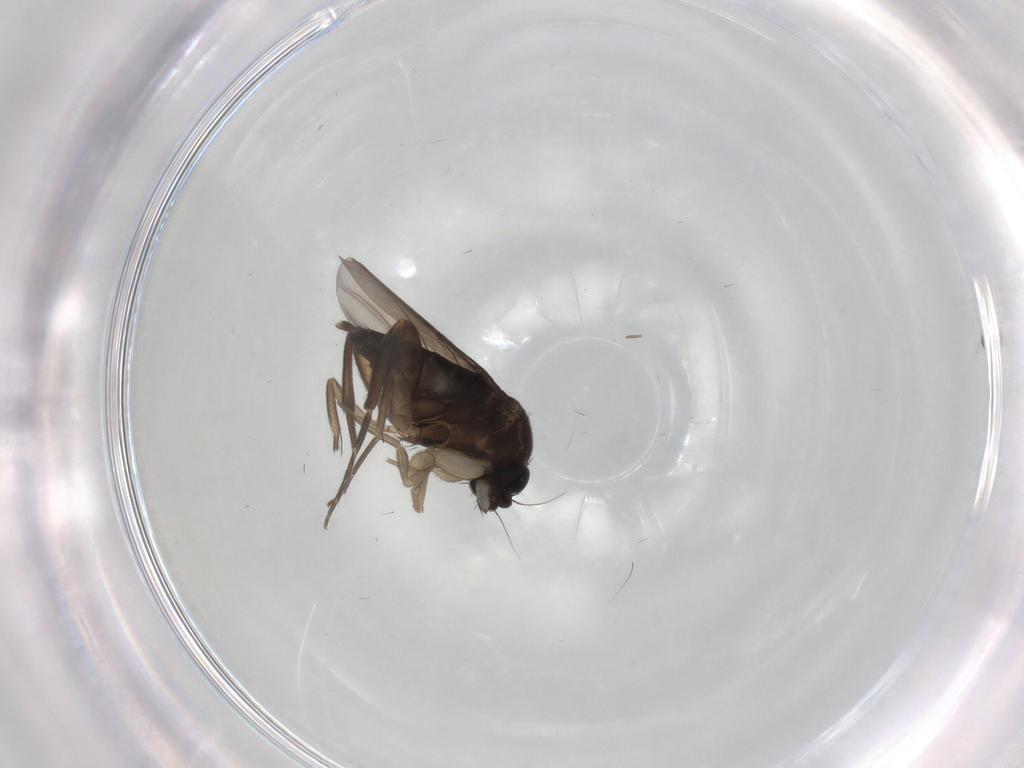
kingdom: Animalia
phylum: Arthropoda
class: Insecta
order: Diptera
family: Phoridae
